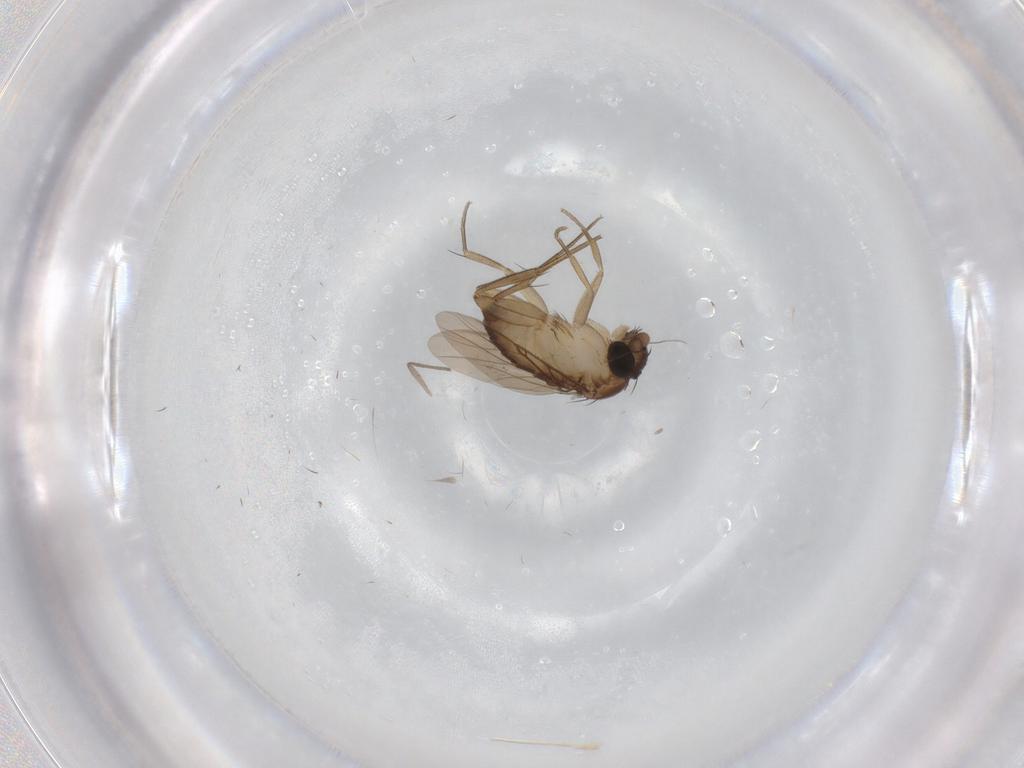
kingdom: Animalia
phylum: Arthropoda
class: Insecta
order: Diptera
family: Phoridae
